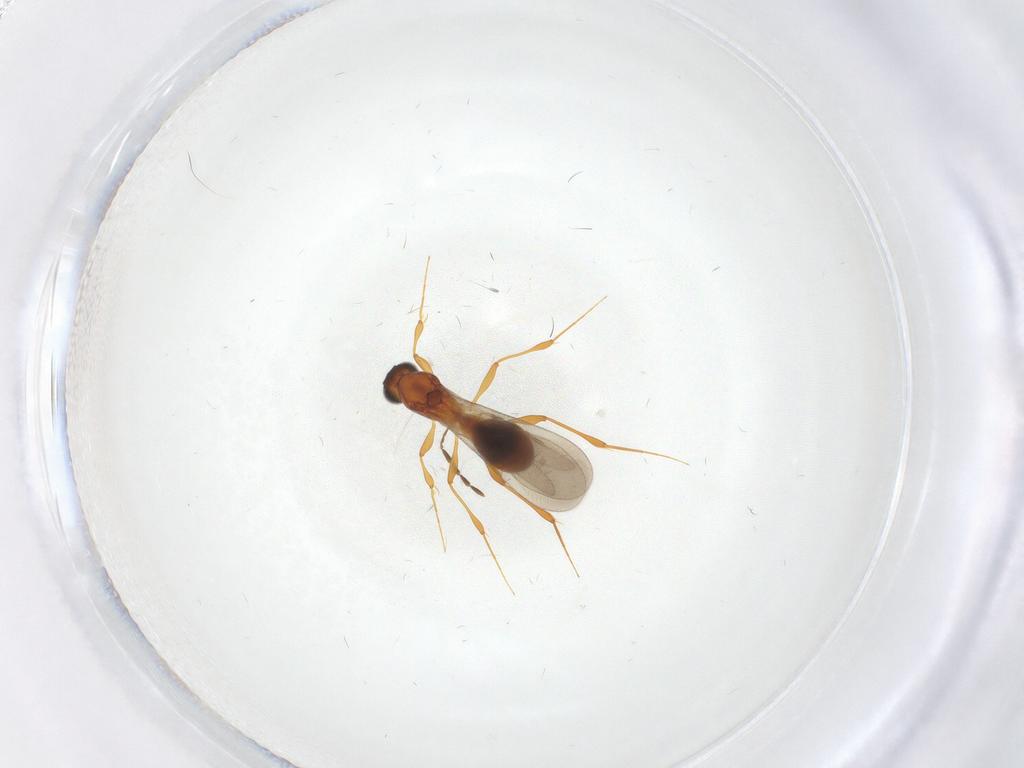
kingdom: Animalia
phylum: Arthropoda
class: Insecta
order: Hymenoptera
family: Platygastridae
